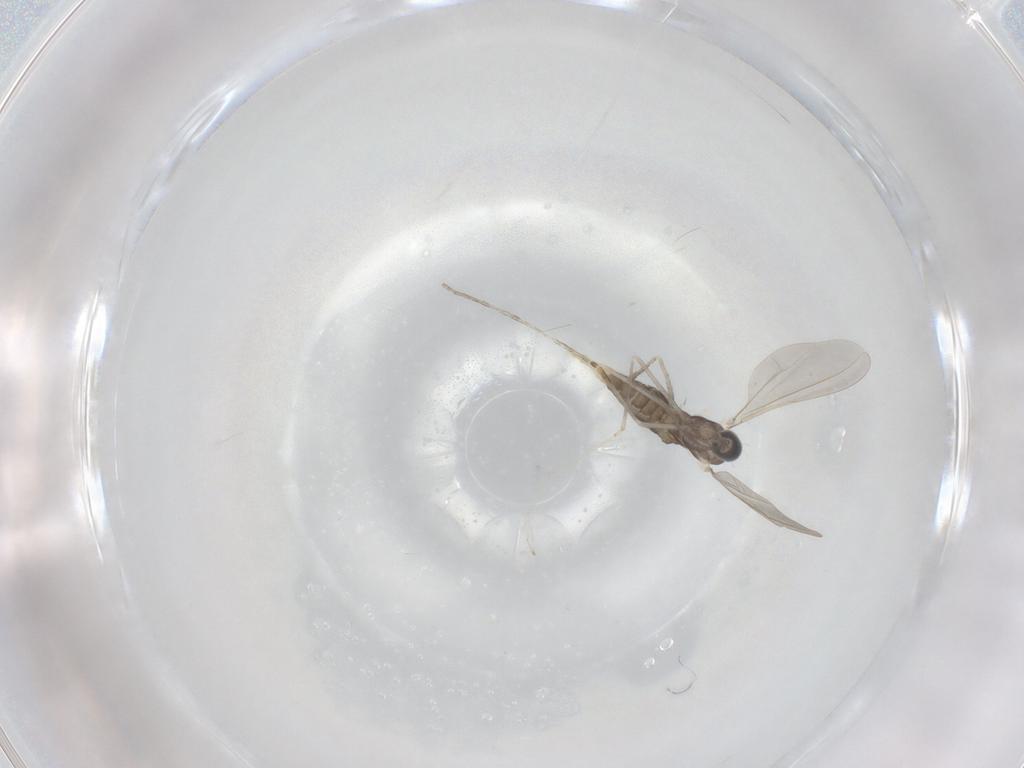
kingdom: Animalia
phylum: Arthropoda
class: Insecta
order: Diptera
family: Cecidomyiidae
